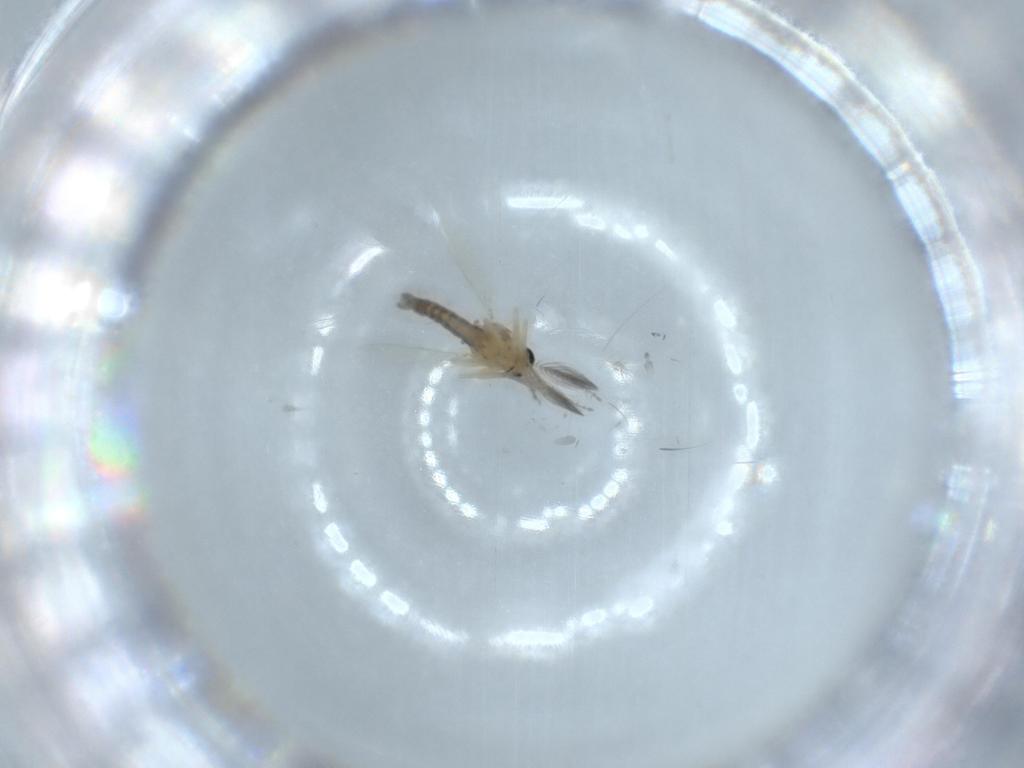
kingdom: Animalia
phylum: Arthropoda
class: Insecta
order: Diptera
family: Ceratopogonidae
